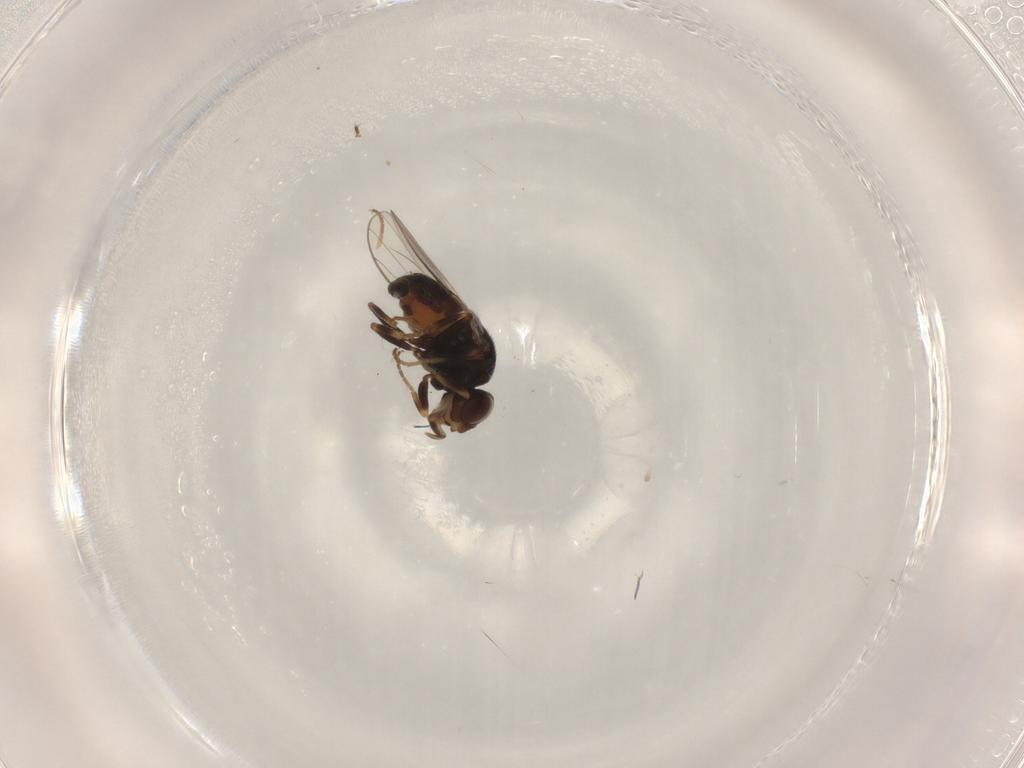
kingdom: Animalia
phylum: Arthropoda
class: Insecta
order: Diptera
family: Chloropidae
